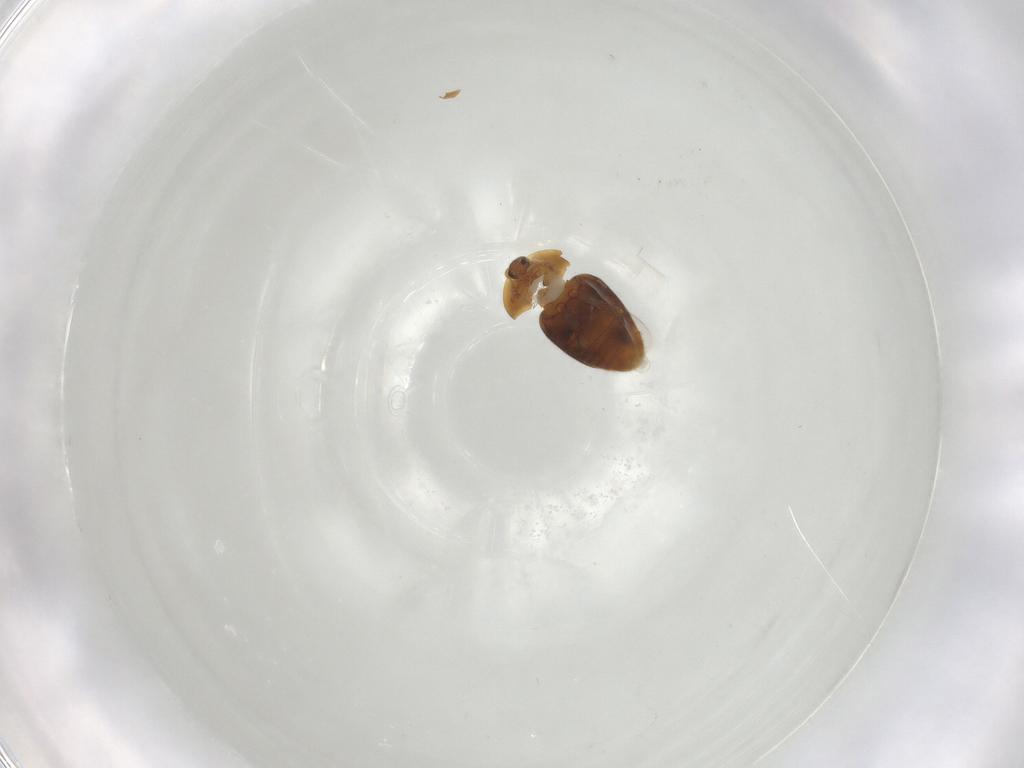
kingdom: Animalia
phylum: Arthropoda
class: Insecta
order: Coleoptera
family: Corylophidae
